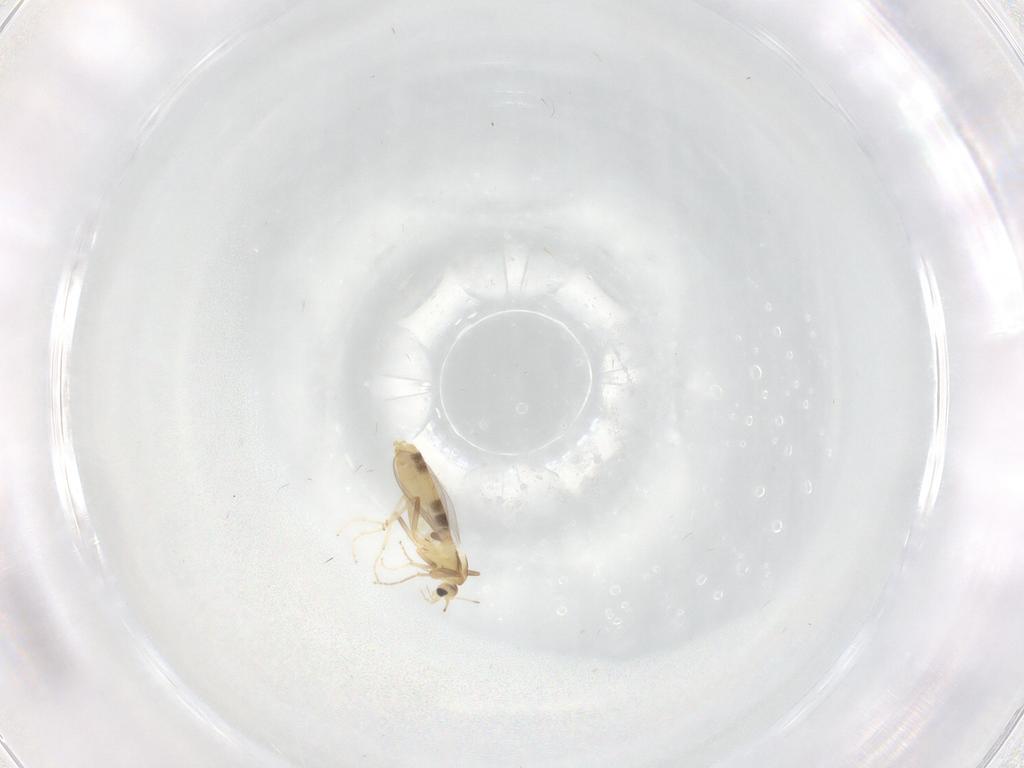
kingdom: Animalia
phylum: Arthropoda
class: Insecta
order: Diptera
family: Chironomidae
